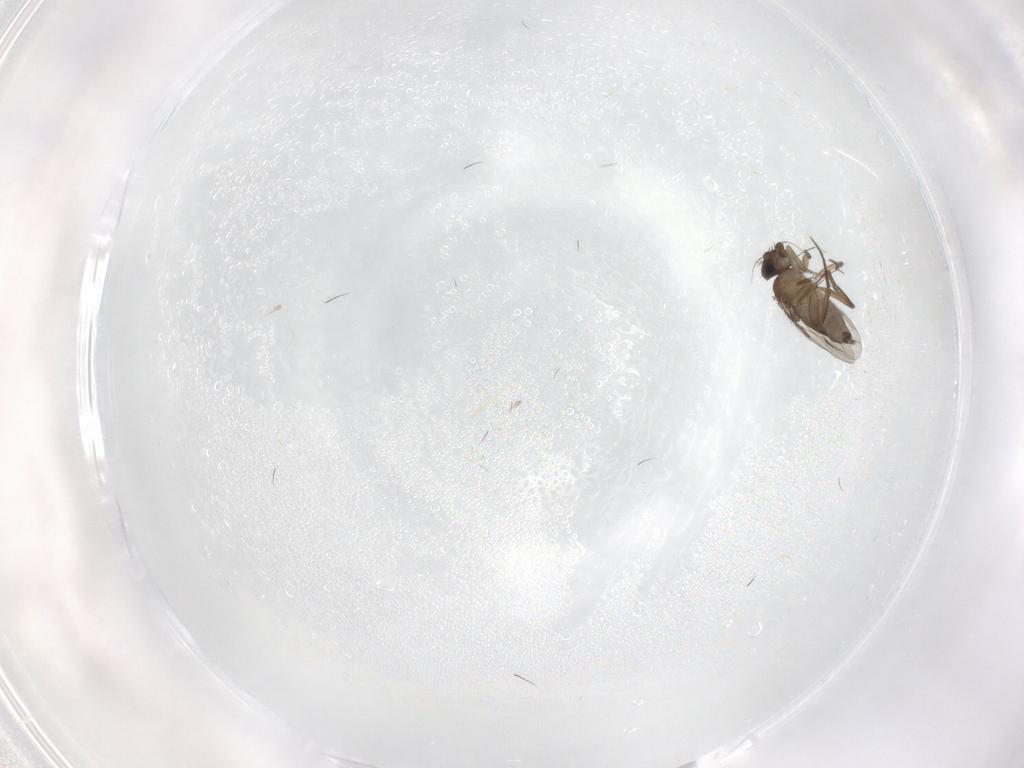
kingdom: Animalia
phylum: Arthropoda
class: Insecta
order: Diptera
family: Phoridae
